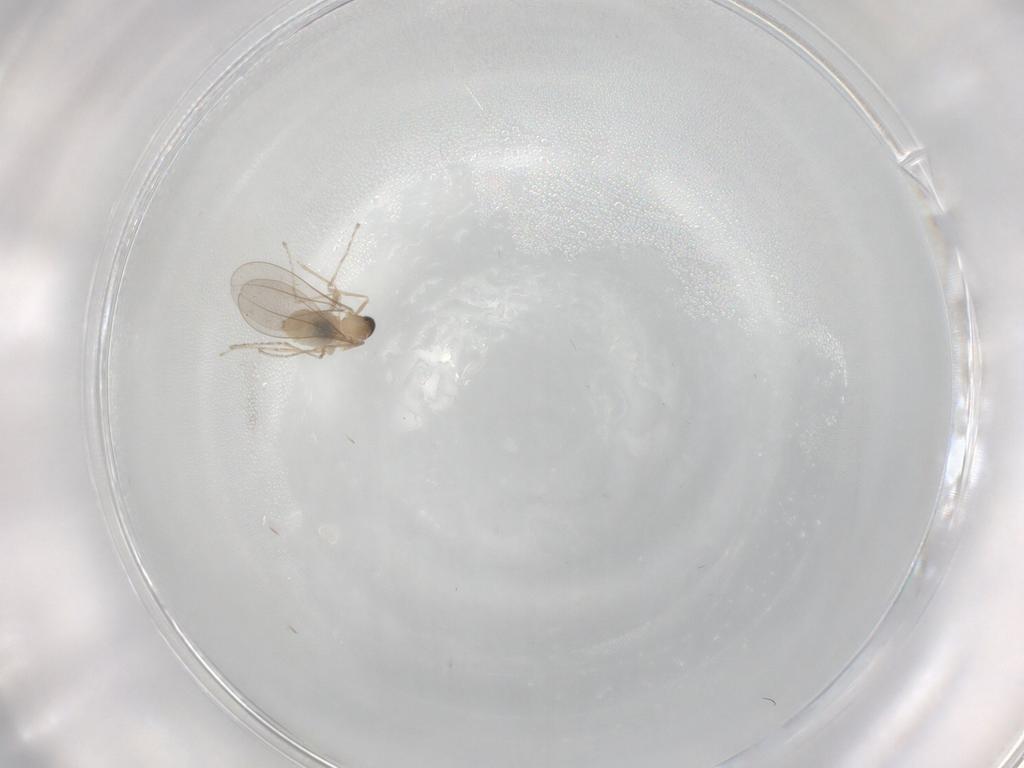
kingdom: Animalia
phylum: Arthropoda
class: Insecta
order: Diptera
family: Cecidomyiidae
